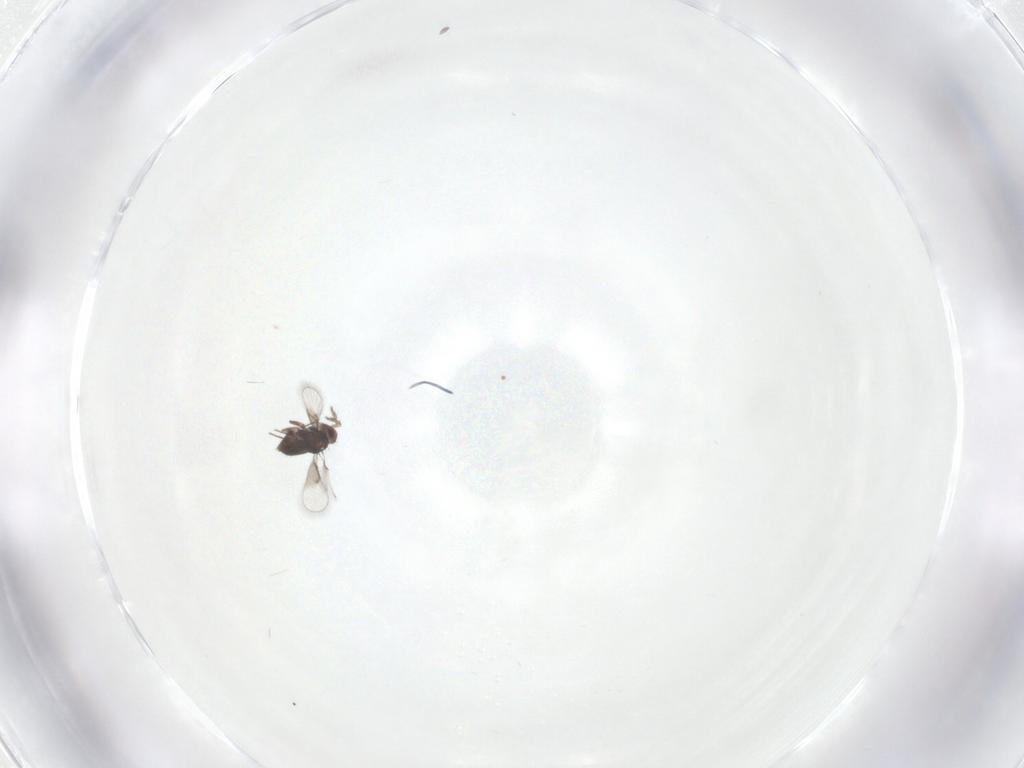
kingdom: Animalia
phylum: Arthropoda
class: Insecta
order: Hymenoptera
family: Trichogrammatidae
